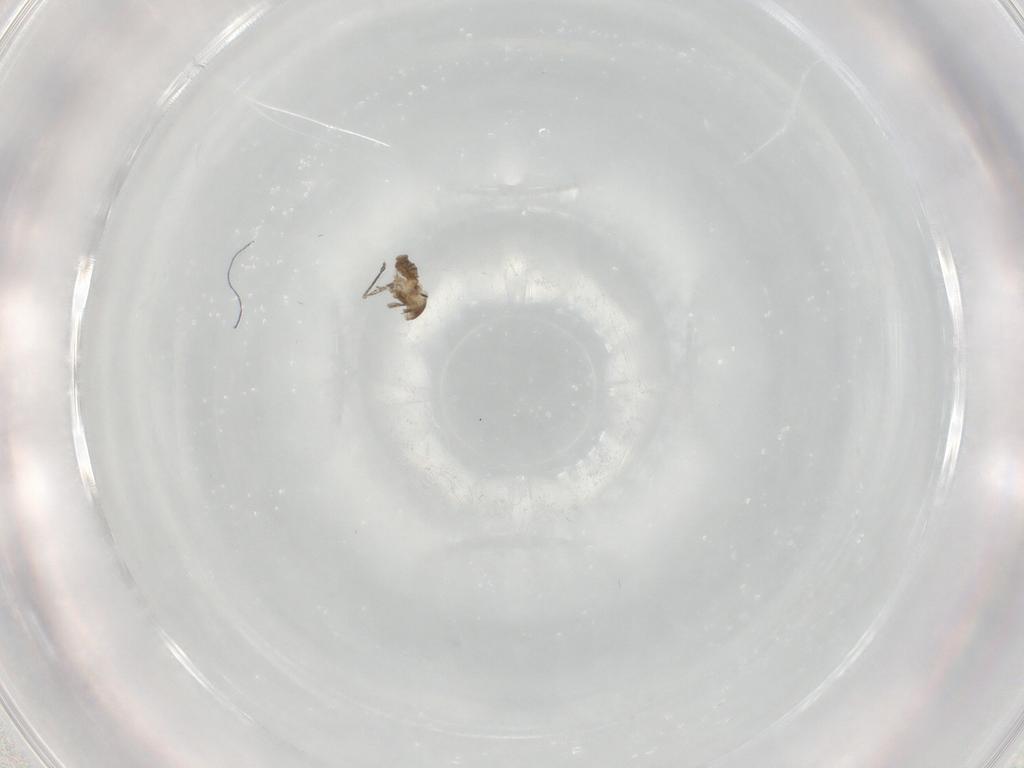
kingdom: Animalia
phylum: Arthropoda
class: Insecta
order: Diptera
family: Cecidomyiidae
